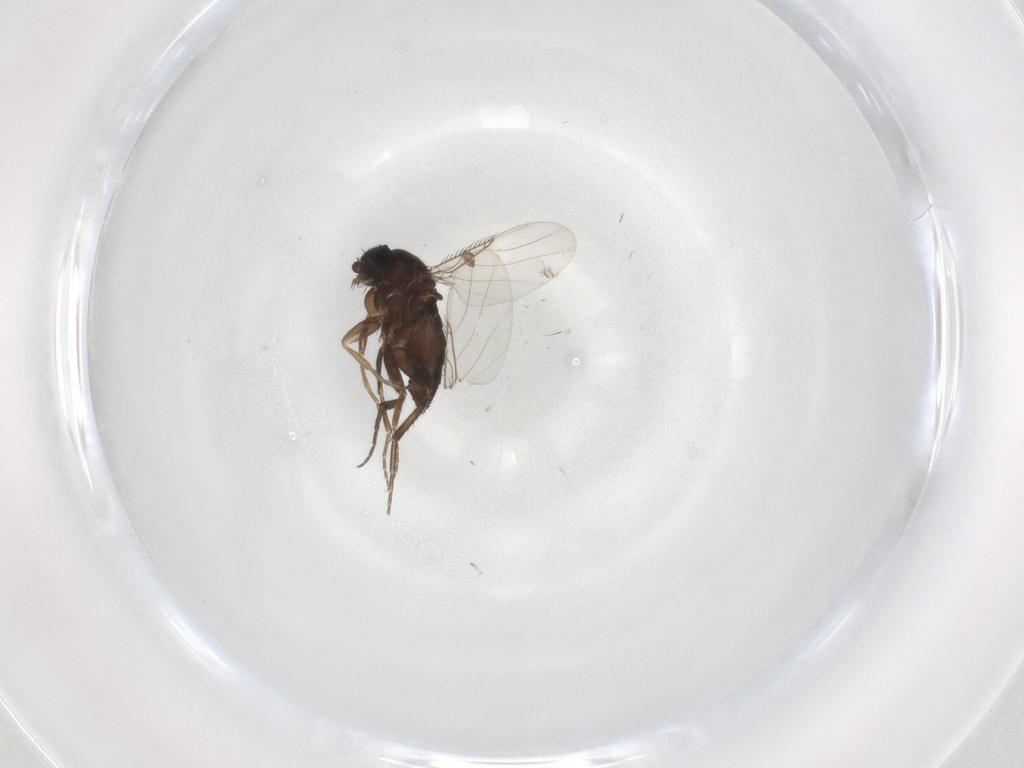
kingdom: Animalia
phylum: Arthropoda
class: Insecta
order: Diptera
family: Phoridae
